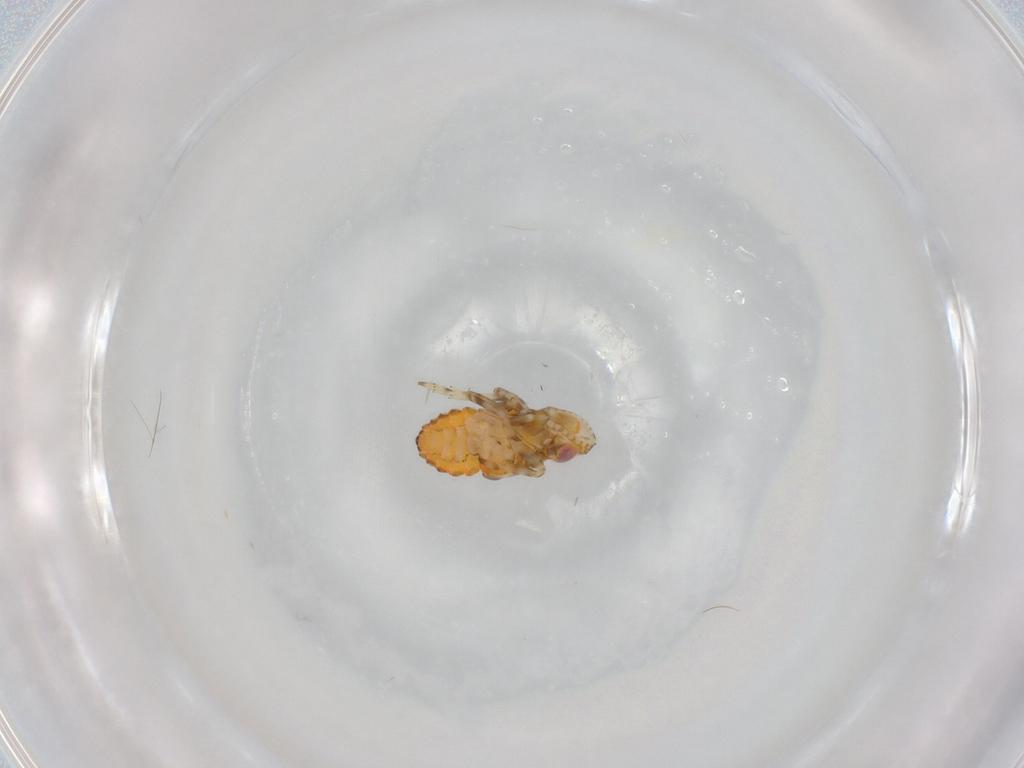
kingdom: Animalia
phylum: Arthropoda
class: Insecta
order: Hemiptera
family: Tropiduchidae
